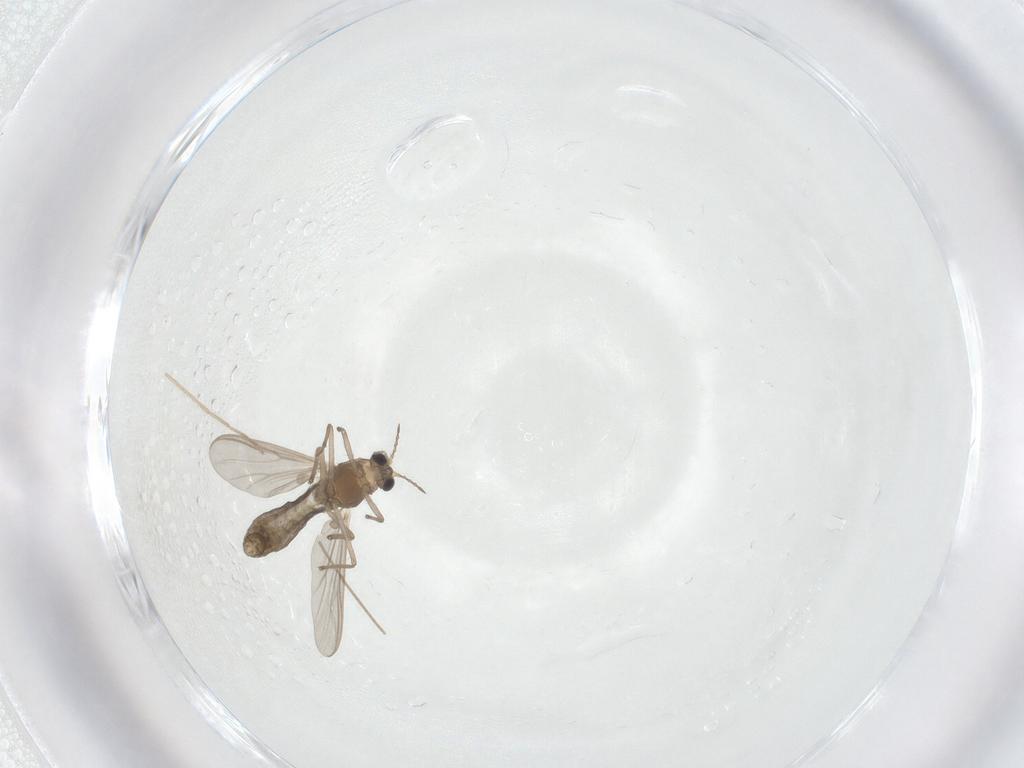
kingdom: Animalia
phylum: Arthropoda
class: Insecta
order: Diptera
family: Chironomidae
